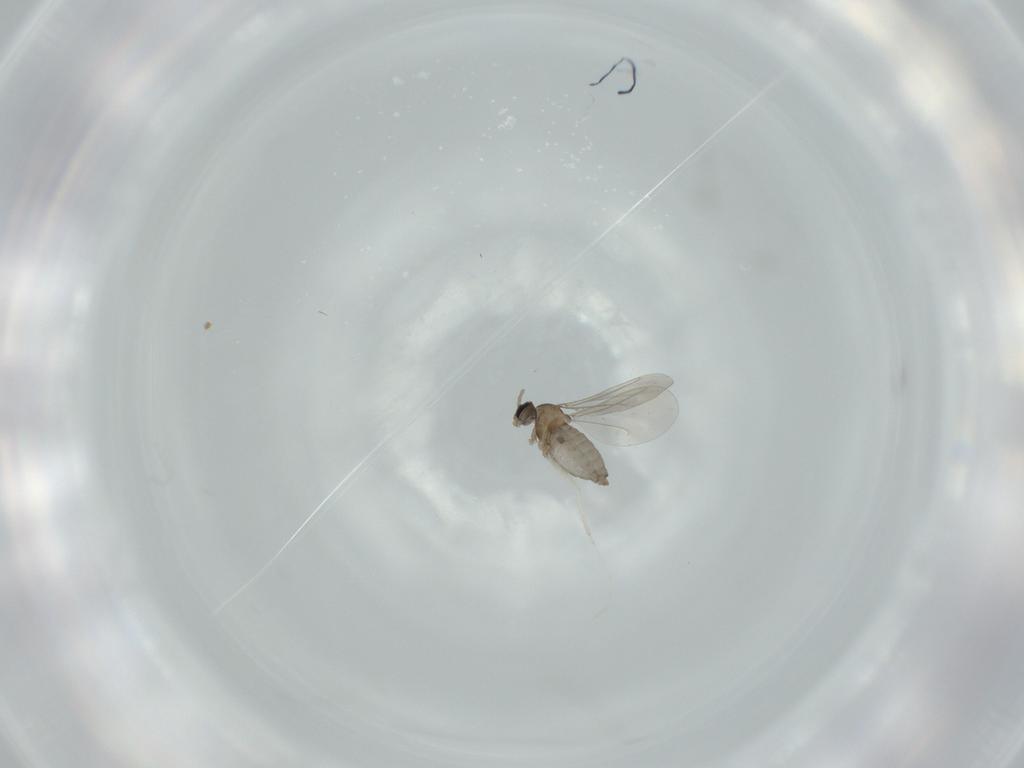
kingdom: Animalia
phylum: Arthropoda
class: Insecta
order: Diptera
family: Cecidomyiidae
